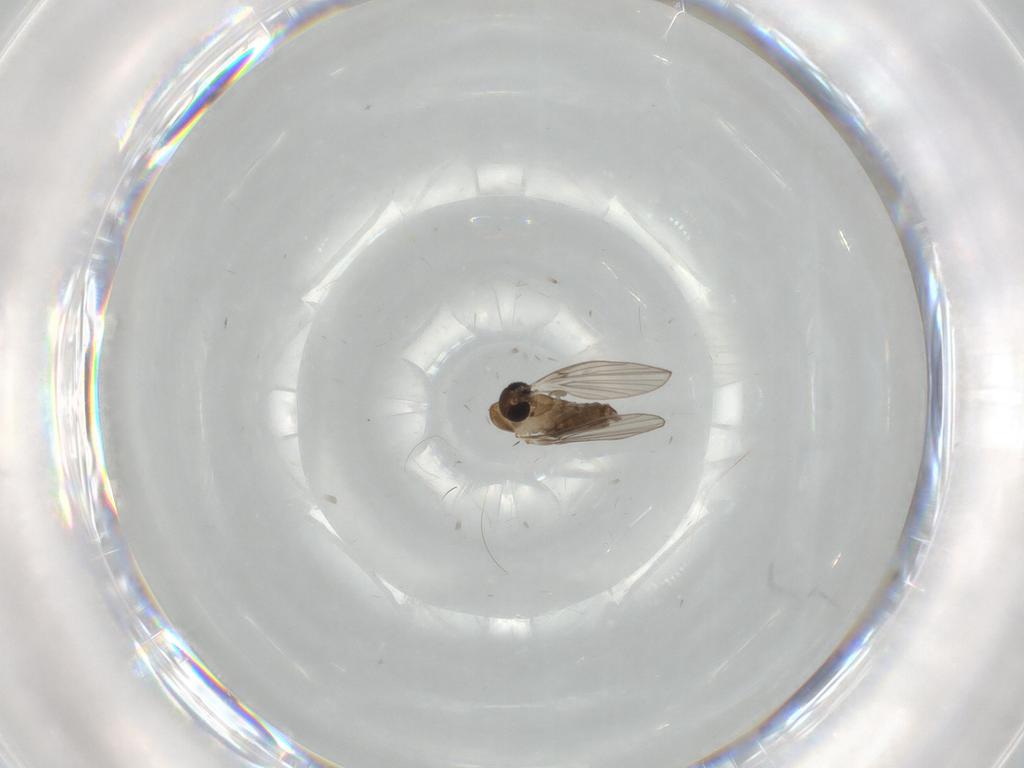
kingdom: Animalia
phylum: Arthropoda
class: Insecta
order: Diptera
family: Psychodidae
